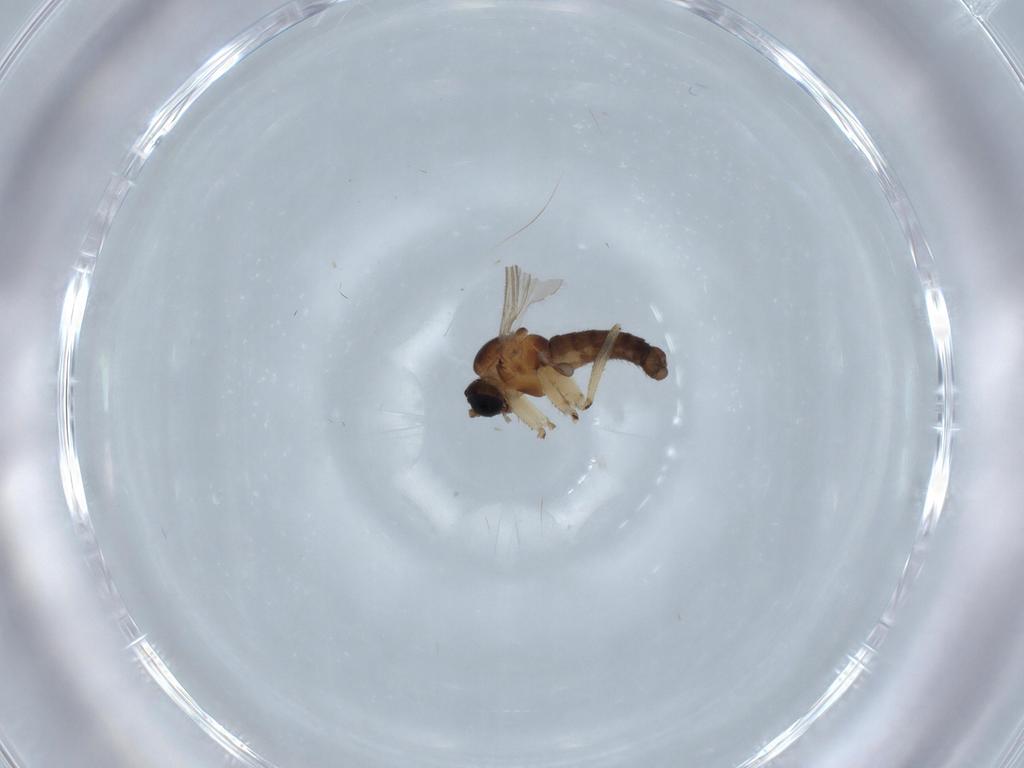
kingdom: Animalia
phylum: Arthropoda
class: Insecta
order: Diptera
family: Sciaridae
